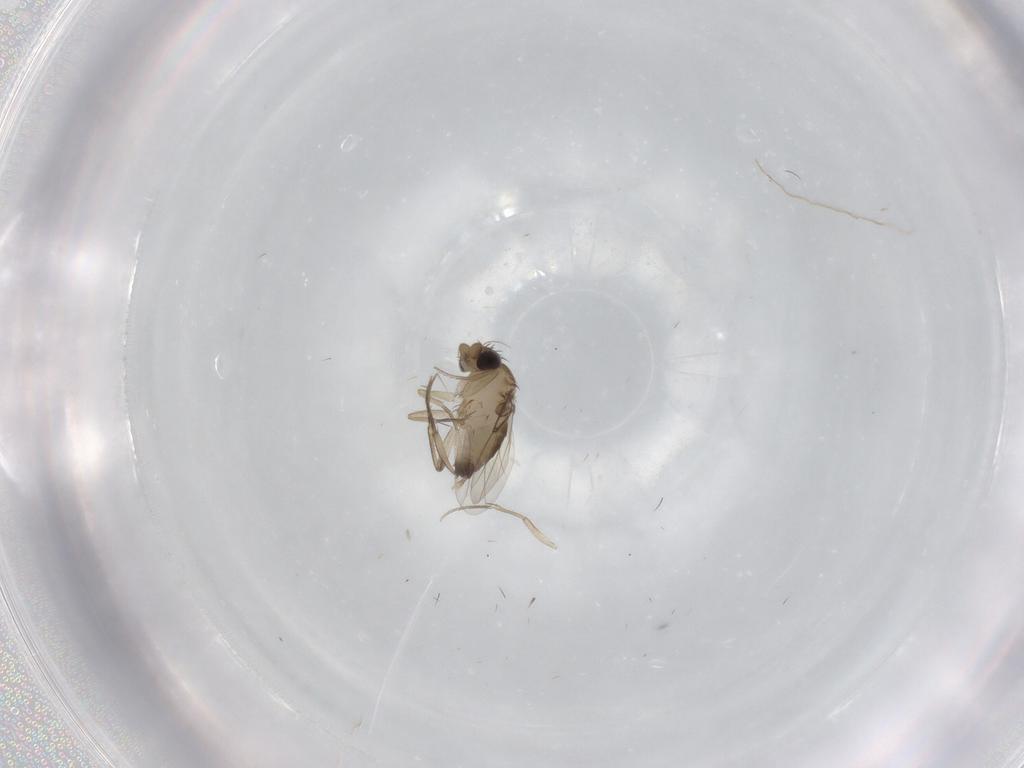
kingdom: Animalia
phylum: Arthropoda
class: Insecta
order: Diptera
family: Phoridae
